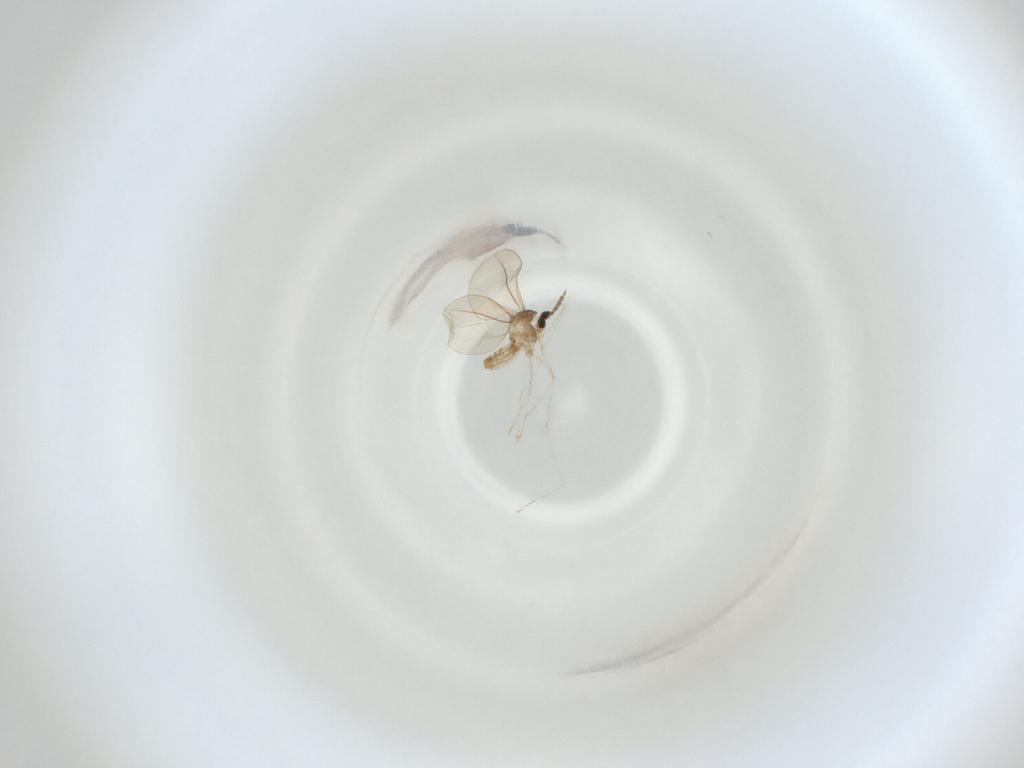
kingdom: Animalia
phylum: Arthropoda
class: Insecta
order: Diptera
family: Cecidomyiidae
